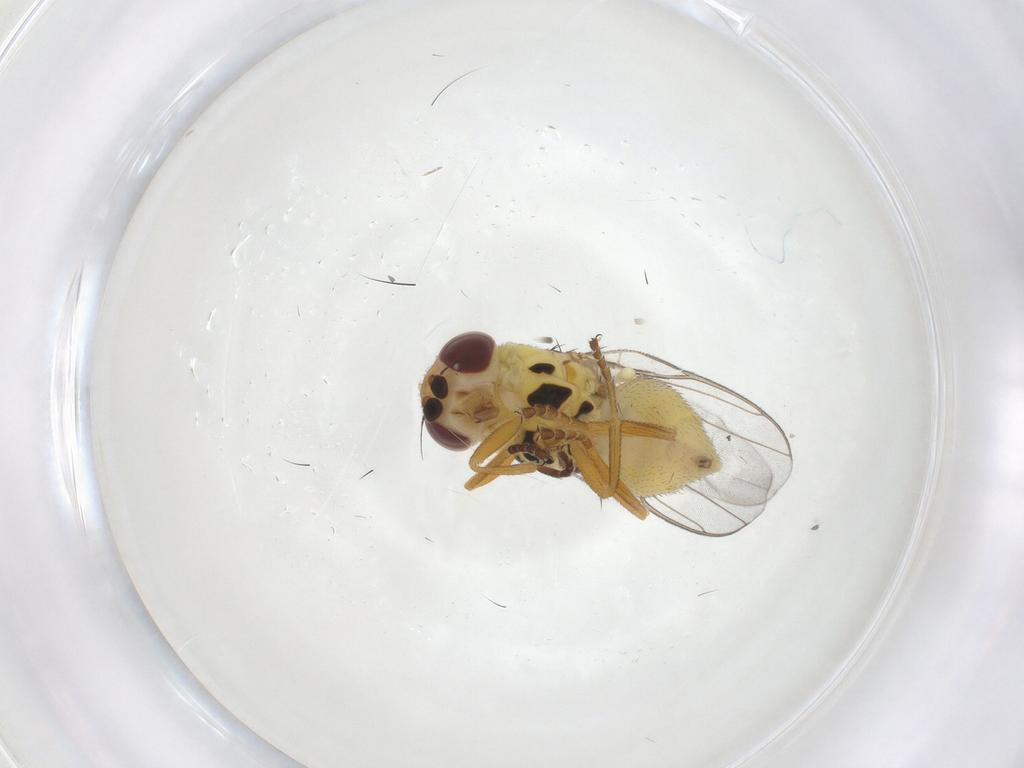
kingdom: Animalia
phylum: Arthropoda
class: Insecta
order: Diptera
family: Chloropidae
